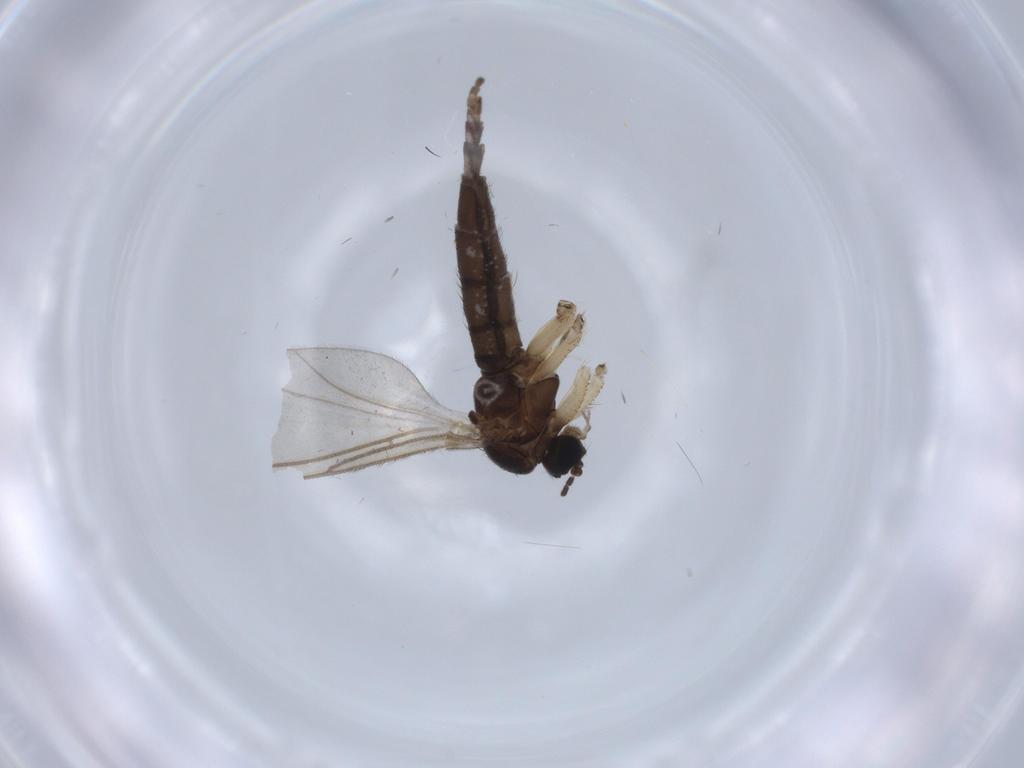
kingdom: Animalia
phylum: Arthropoda
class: Insecta
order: Diptera
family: Sciaridae
